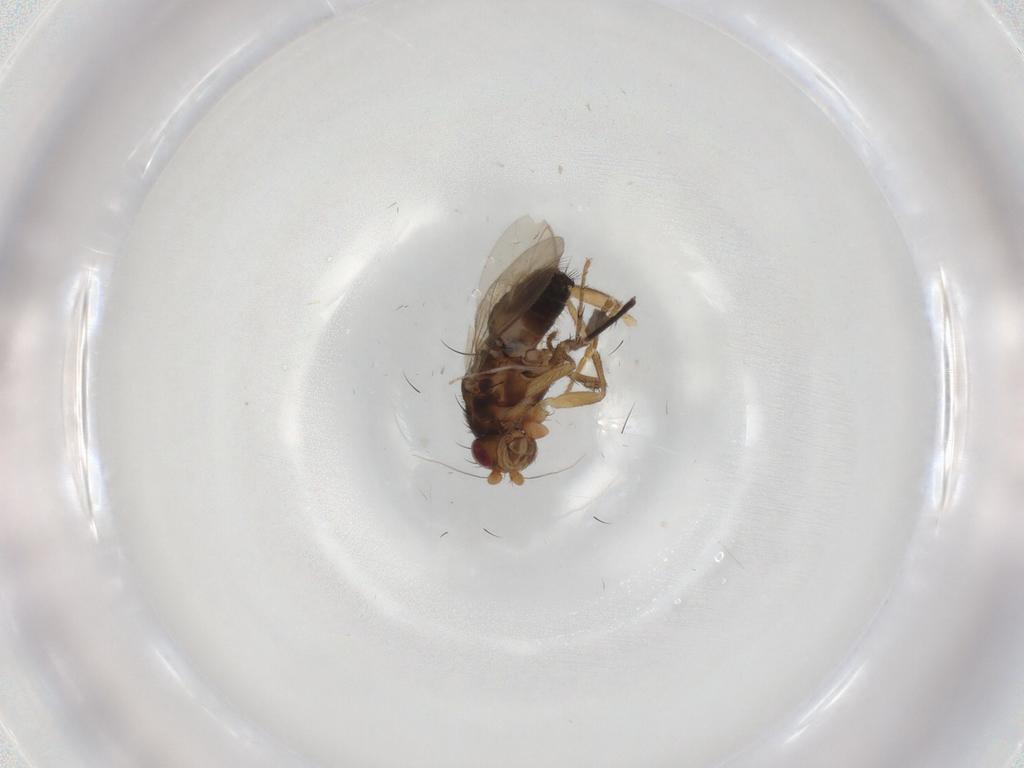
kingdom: Animalia
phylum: Arthropoda
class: Insecta
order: Diptera
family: Sphaeroceridae
